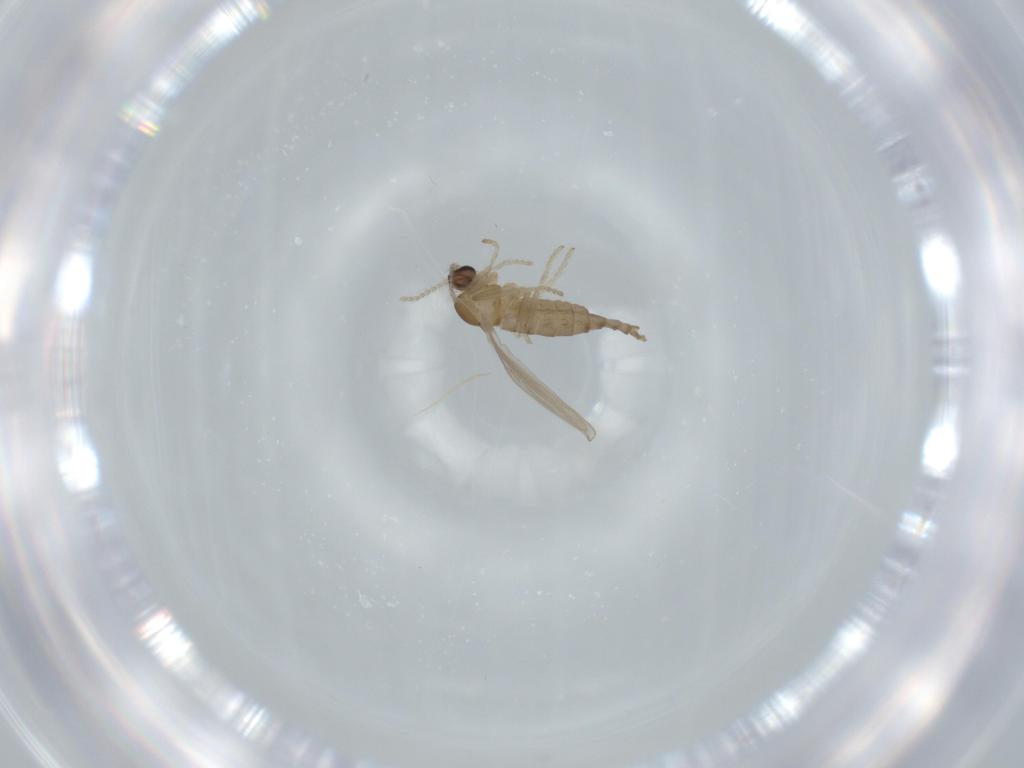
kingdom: Animalia
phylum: Arthropoda
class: Insecta
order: Diptera
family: Cecidomyiidae
